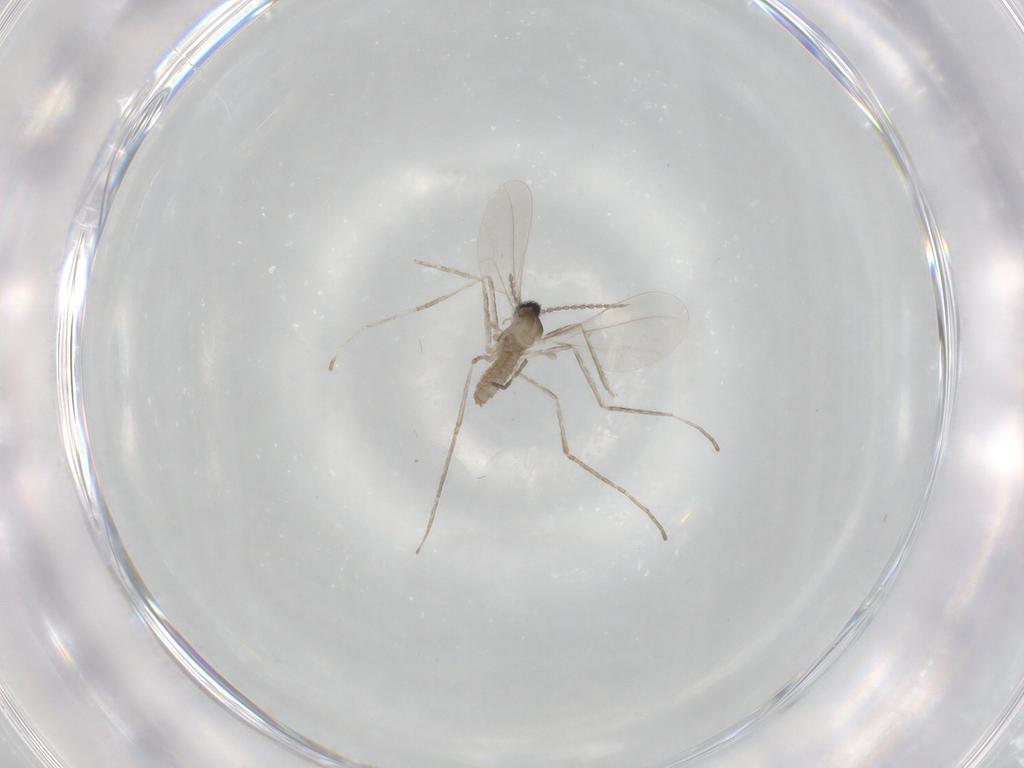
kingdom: Animalia
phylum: Arthropoda
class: Insecta
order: Diptera
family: Cecidomyiidae
